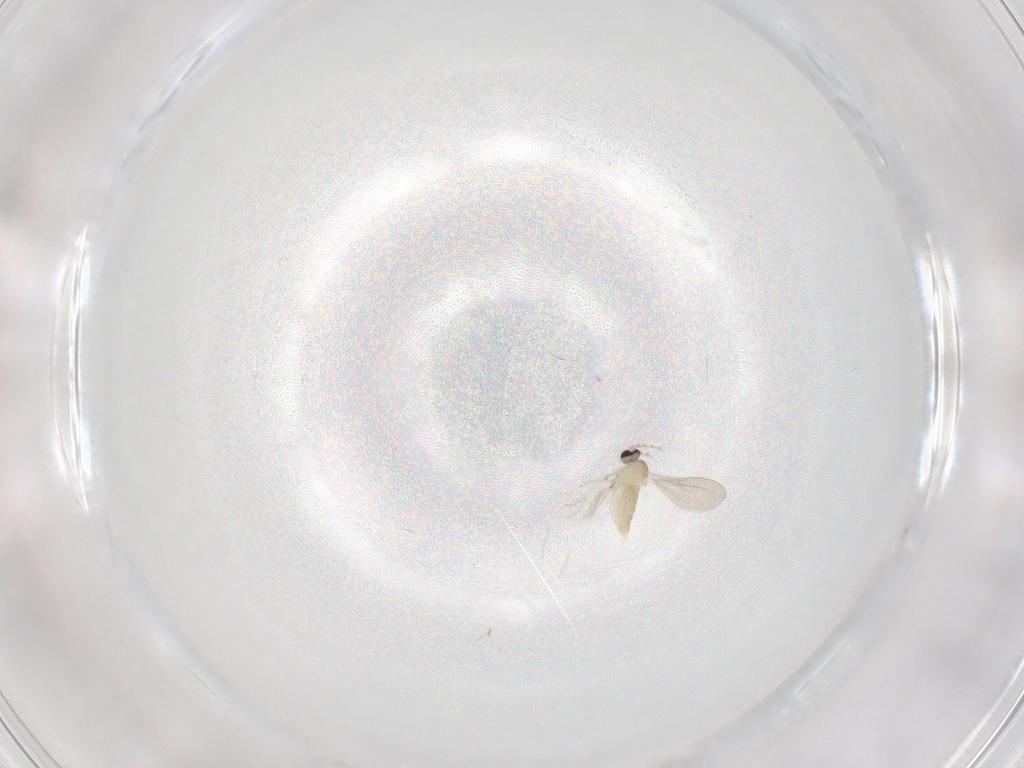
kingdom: Animalia
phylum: Arthropoda
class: Insecta
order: Diptera
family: Cecidomyiidae
